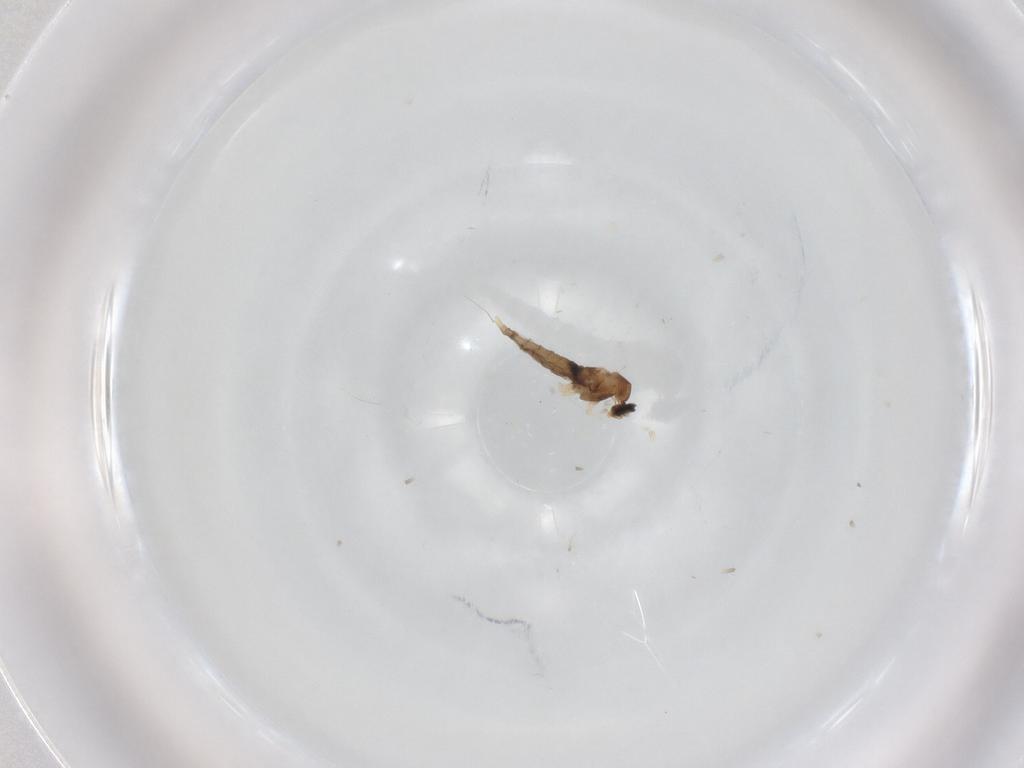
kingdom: Animalia
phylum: Arthropoda
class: Insecta
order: Diptera
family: Cecidomyiidae
